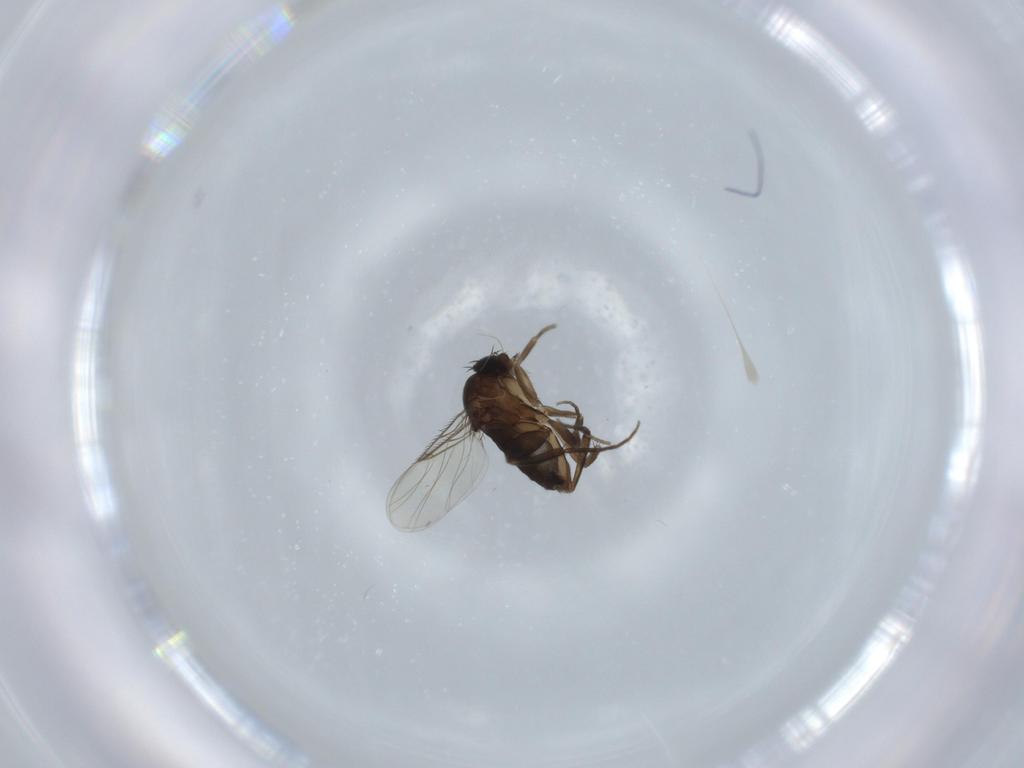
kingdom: Animalia
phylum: Arthropoda
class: Insecta
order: Diptera
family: Phoridae
